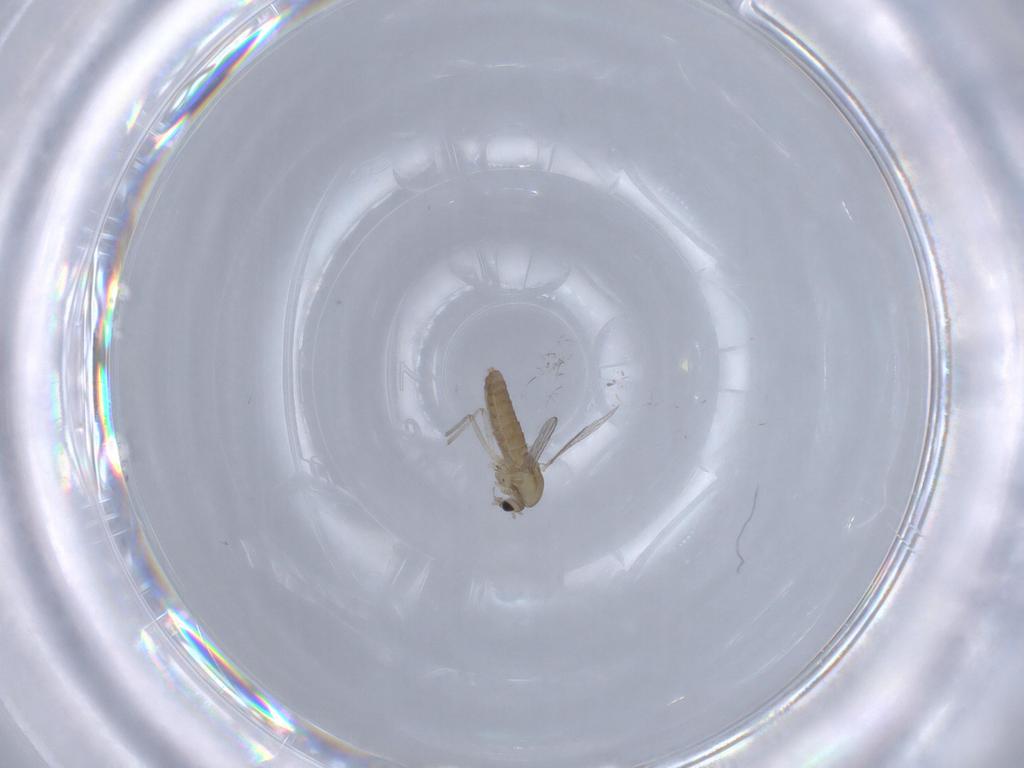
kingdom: Animalia
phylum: Arthropoda
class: Insecta
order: Diptera
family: Chironomidae
